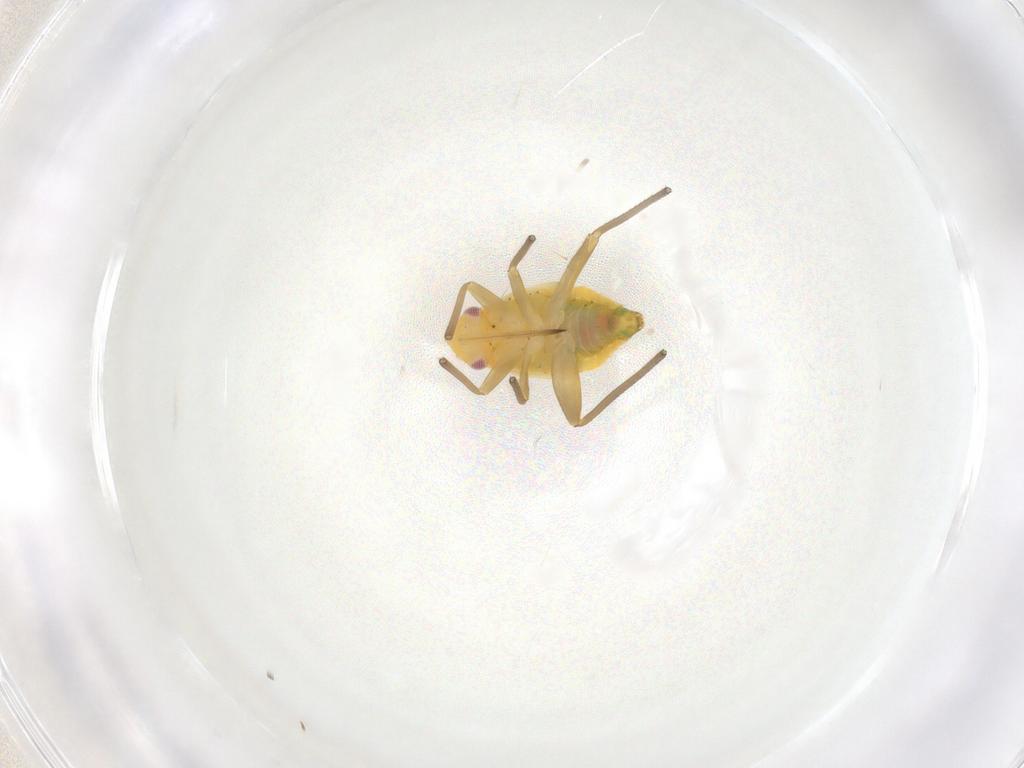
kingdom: Animalia
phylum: Arthropoda
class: Insecta
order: Hemiptera
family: Miridae
